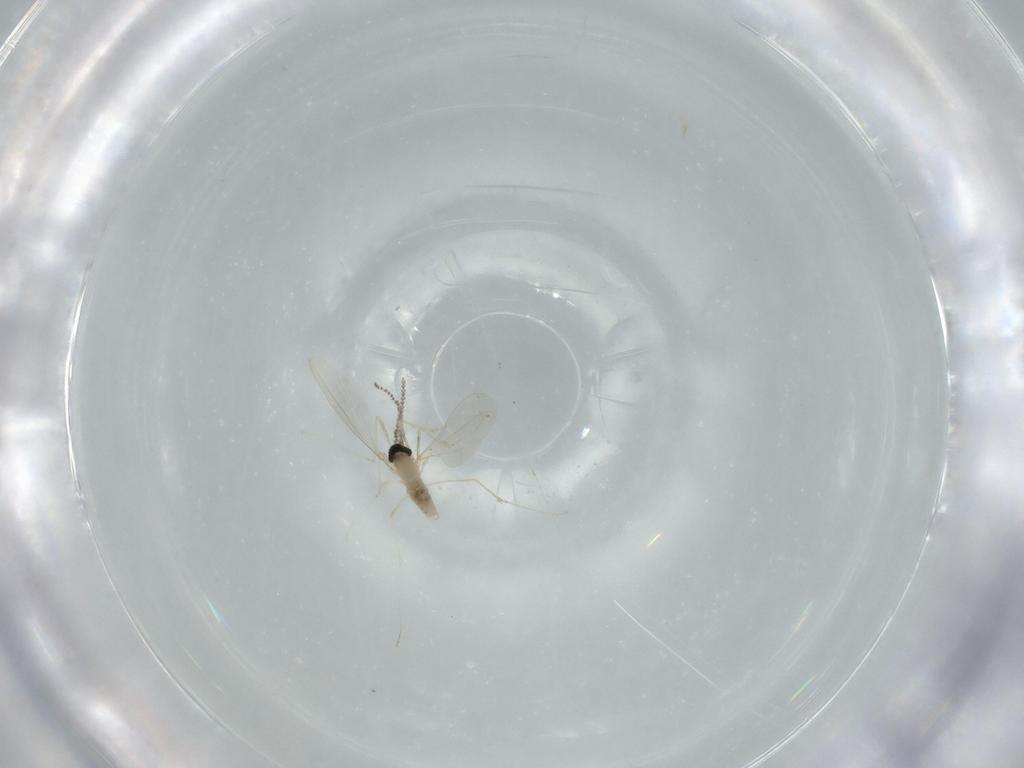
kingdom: Animalia
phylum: Arthropoda
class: Insecta
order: Diptera
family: Cecidomyiidae
